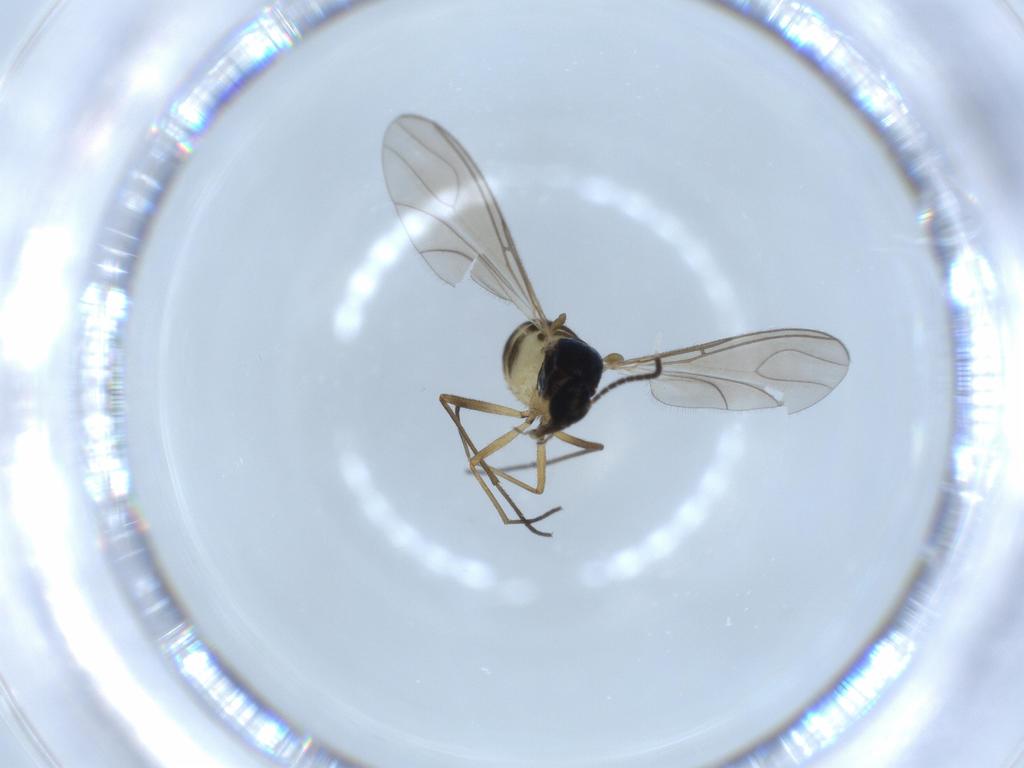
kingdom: Animalia
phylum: Arthropoda
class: Insecta
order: Diptera
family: Sciaridae
